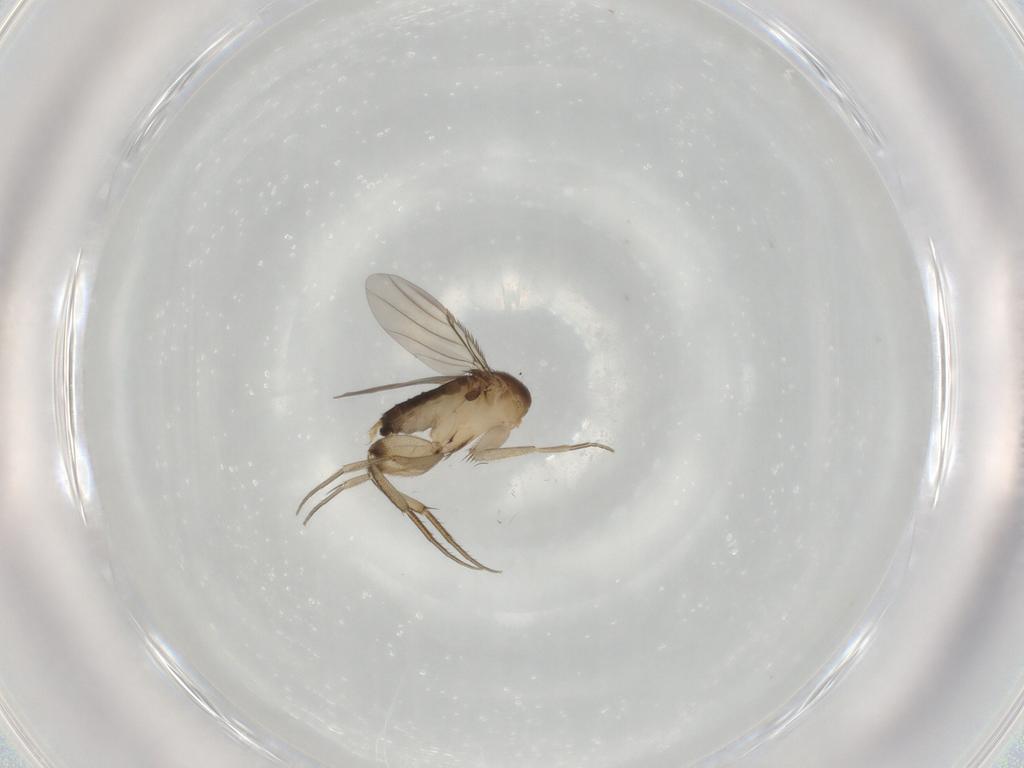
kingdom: Animalia
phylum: Arthropoda
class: Insecta
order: Diptera
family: Phoridae
